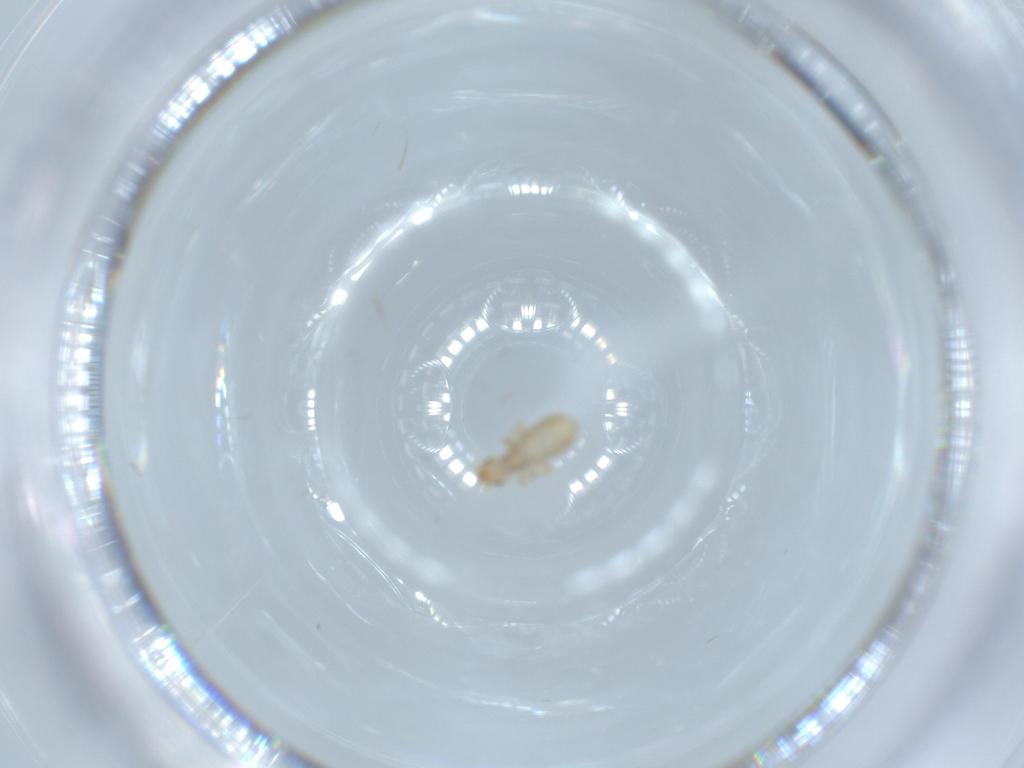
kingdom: Animalia
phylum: Arthropoda
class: Insecta
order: Psocodea
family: Liposcelididae
